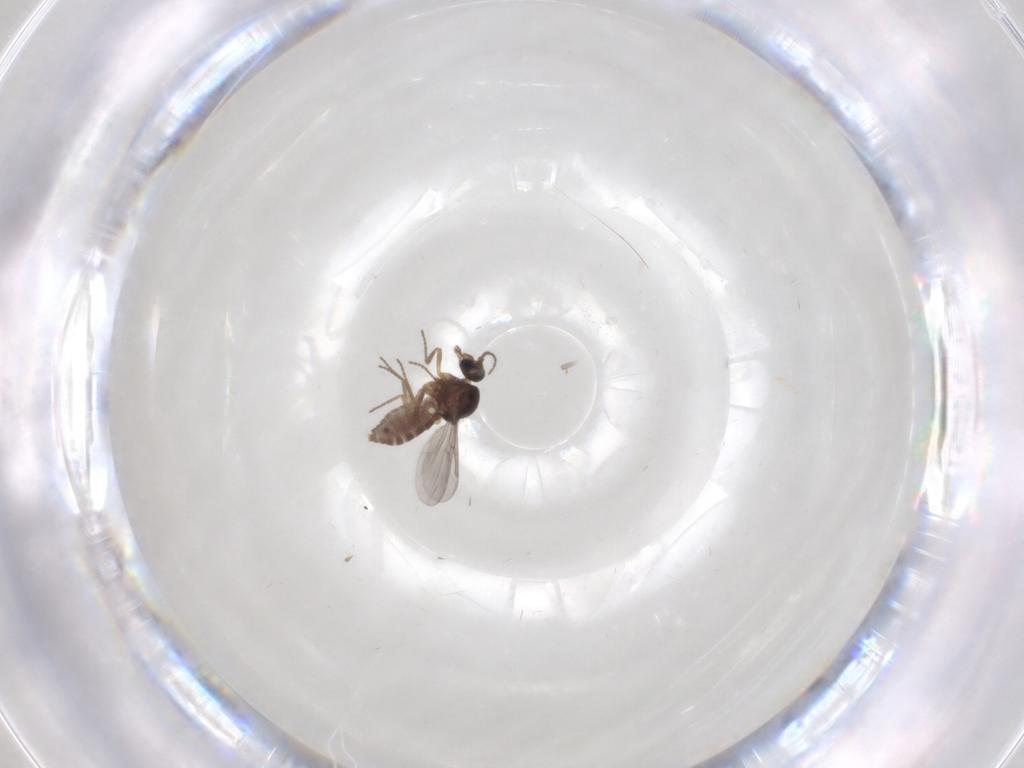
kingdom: Animalia
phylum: Arthropoda
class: Insecta
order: Diptera
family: Ceratopogonidae
